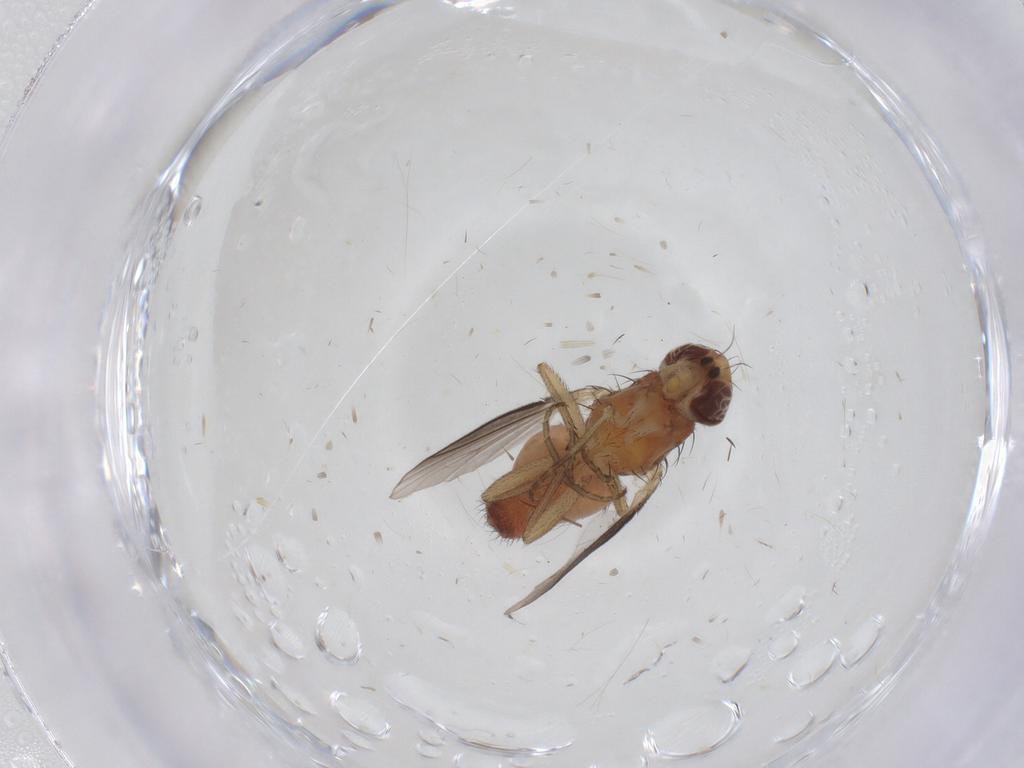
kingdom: Animalia
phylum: Arthropoda
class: Insecta
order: Diptera
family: Heleomyzidae
